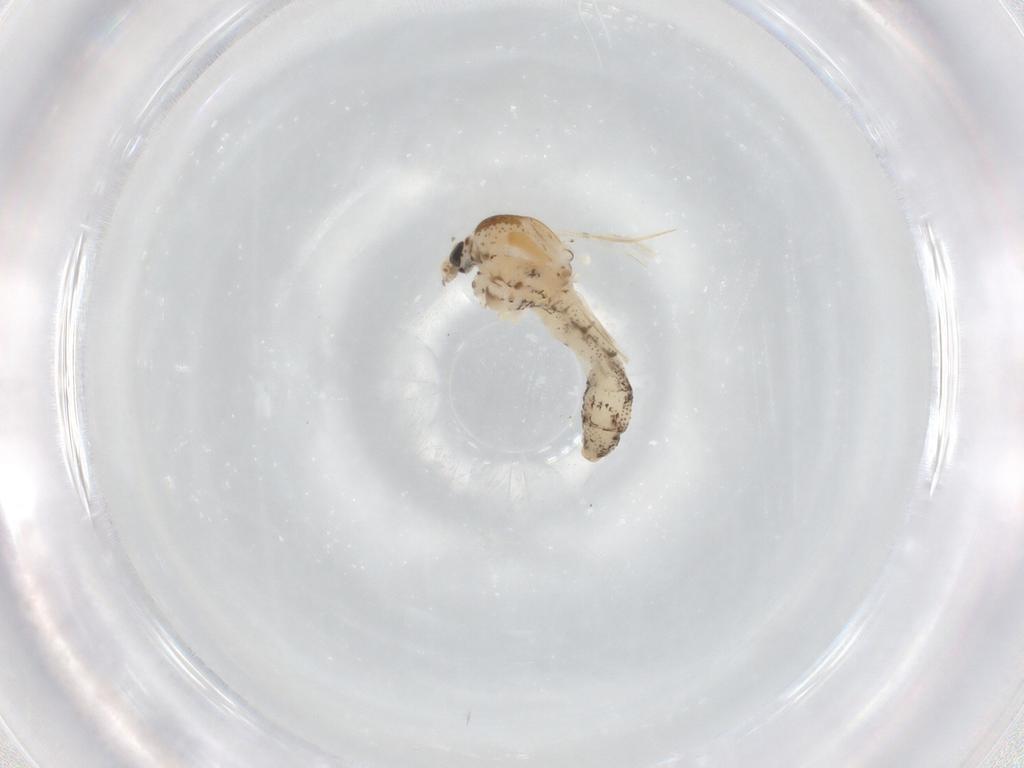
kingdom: Animalia
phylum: Arthropoda
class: Insecta
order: Diptera
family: Chaoboridae
